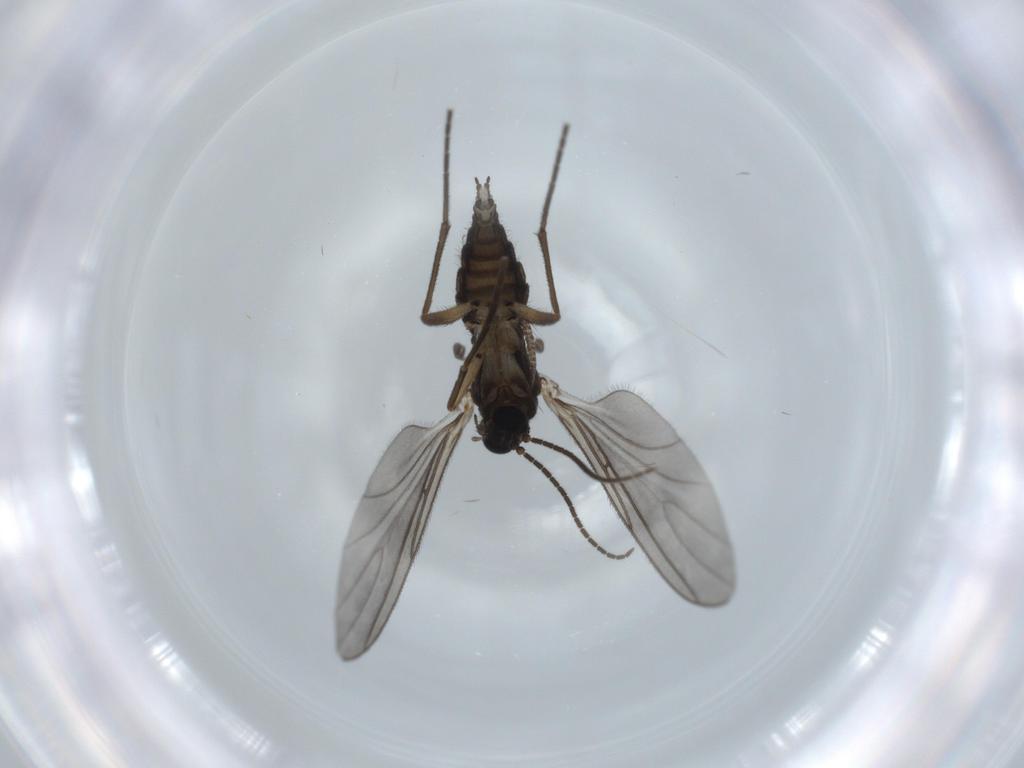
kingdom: Animalia
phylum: Arthropoda
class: Insecta
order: Diptera
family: Sciaridae
